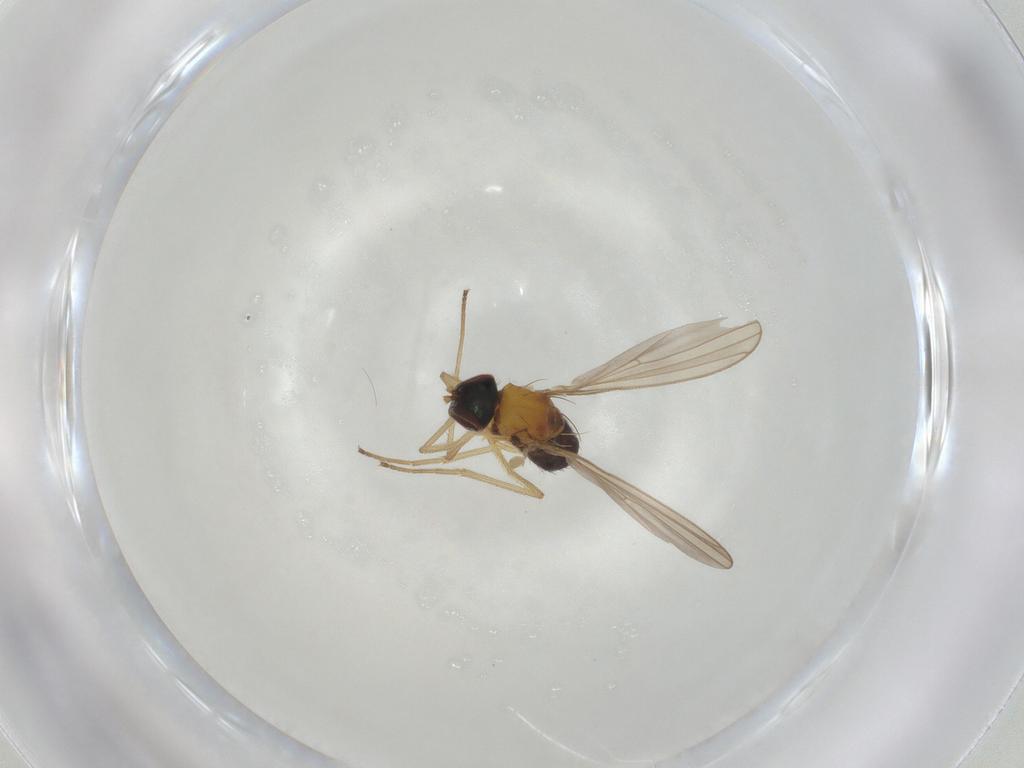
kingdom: Animalia
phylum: Arthropoda
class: Insecta
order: Diptera
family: Dolichopodidae
